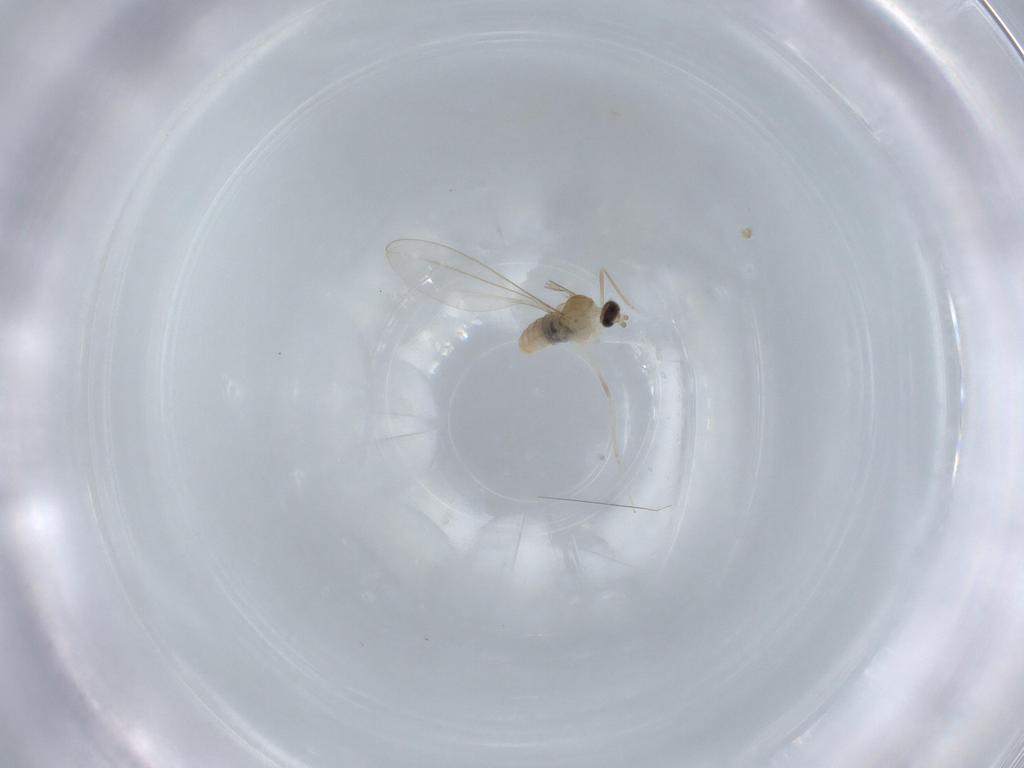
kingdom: Animalia
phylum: Arthropoda
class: Insecta
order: Diptera
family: Cecidomyiidae
